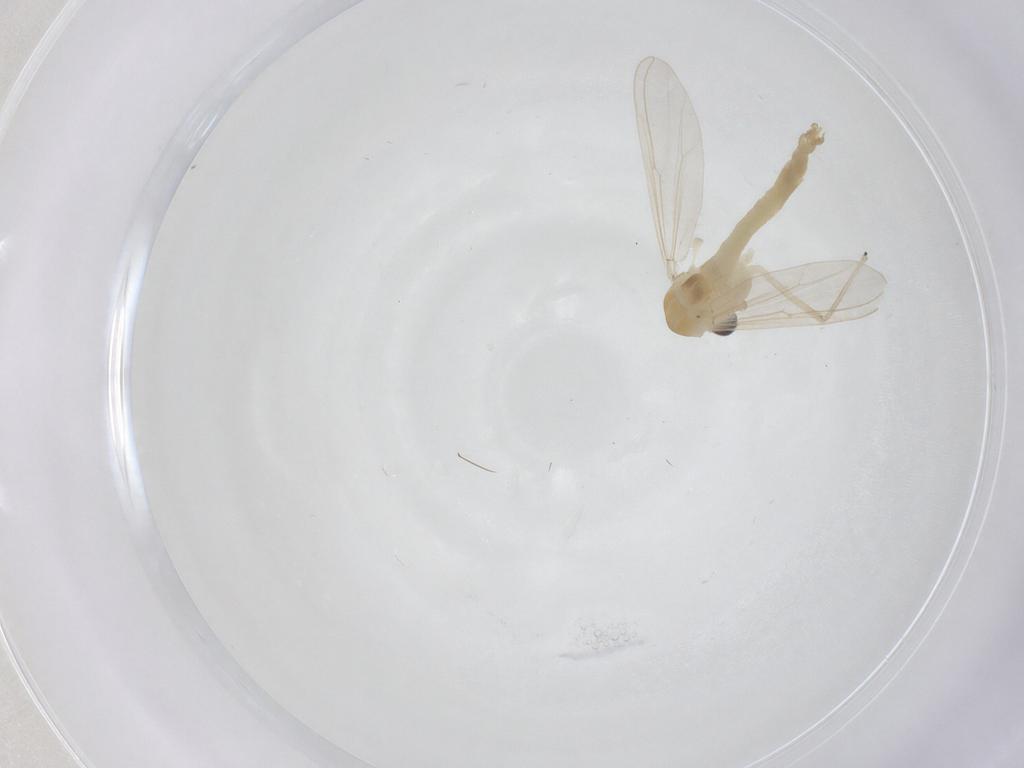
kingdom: Animalia
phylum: Arthropoda
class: Insecta
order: Diptera
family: Chironomidae
